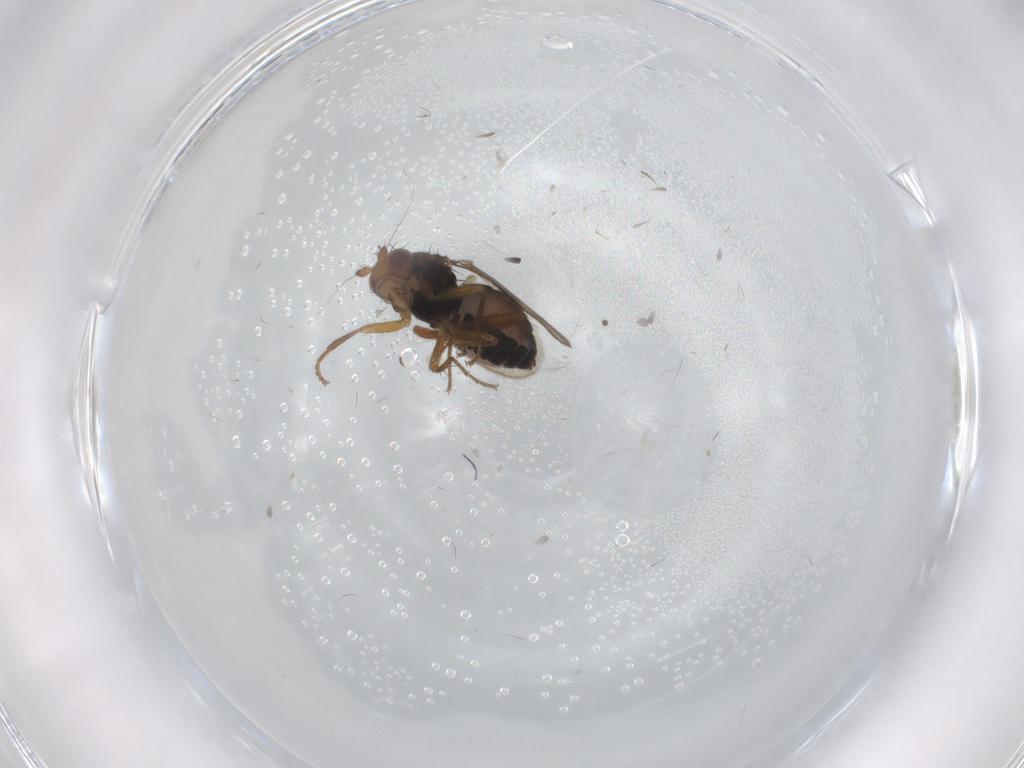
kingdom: Animalia
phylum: Arthropoda
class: Insecta
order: Diptera
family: Sphaeroceridae
